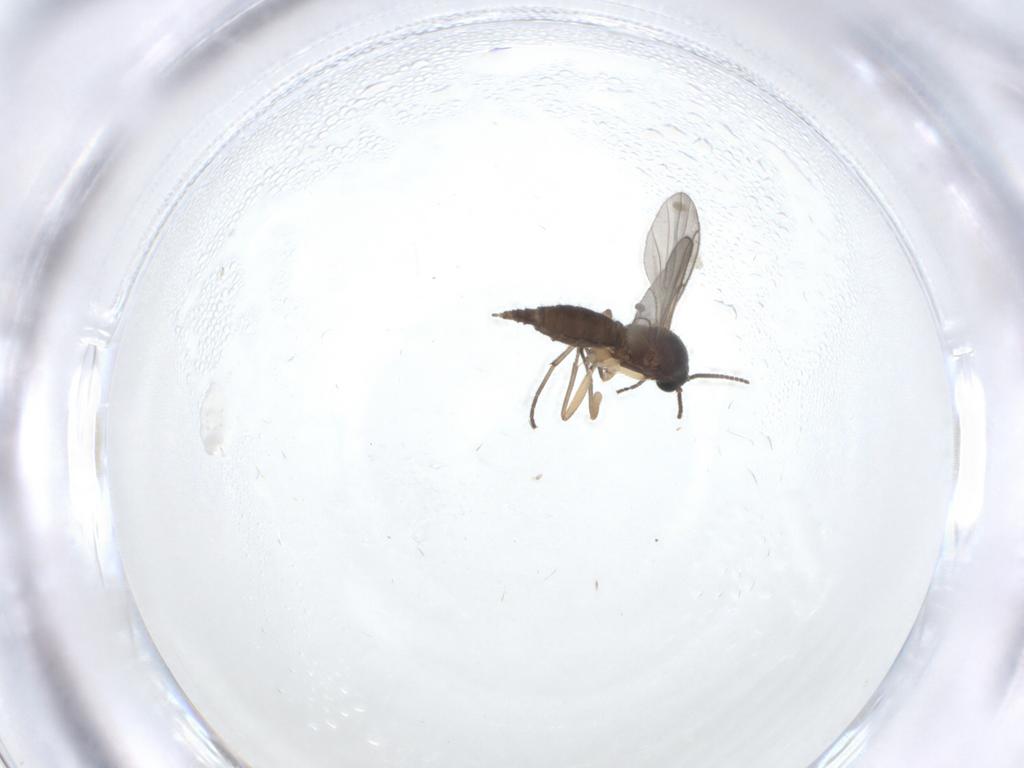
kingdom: Animalia
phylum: Arthropoda
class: Insecta
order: Diptera
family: Sciaridae
